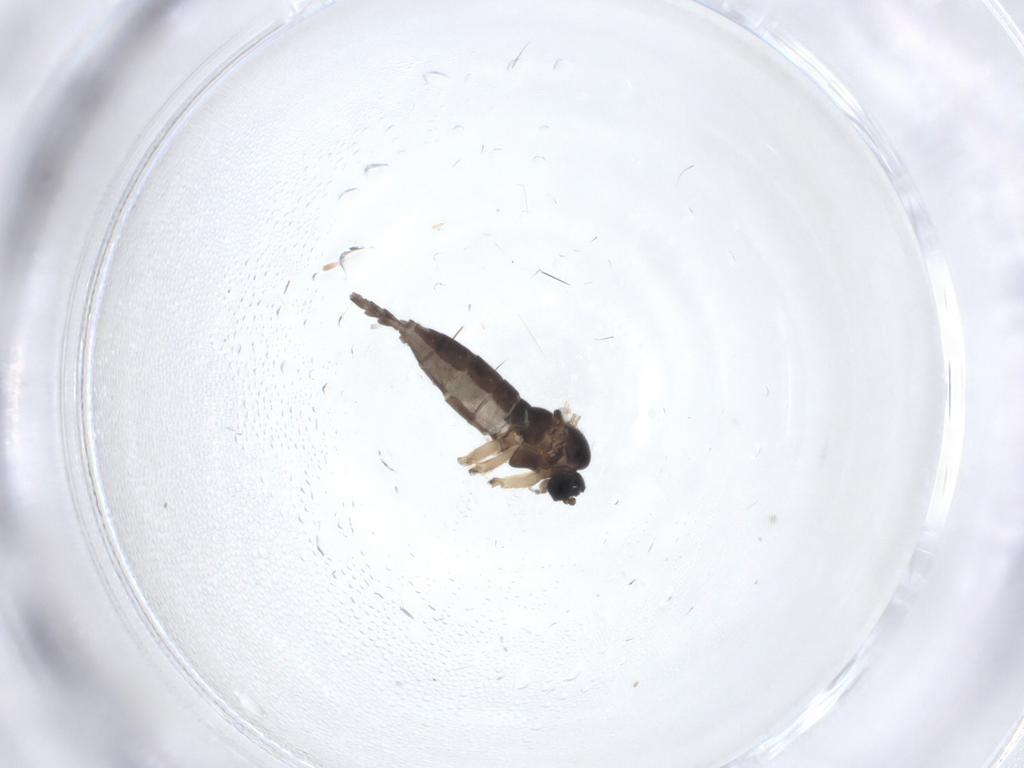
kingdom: Animalia
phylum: Arthropoda
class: Insecta
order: Diptera
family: Sciaridae
